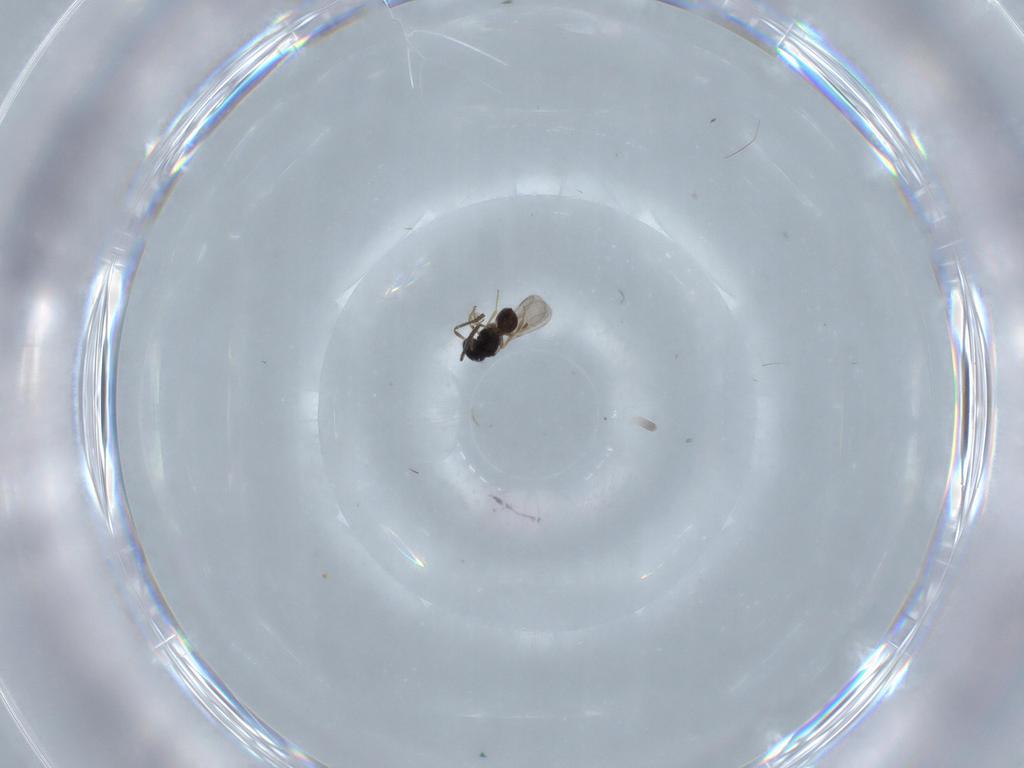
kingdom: Animalia
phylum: Arthropoda
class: Insecta
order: Hymenoptera
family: Scelionidae
